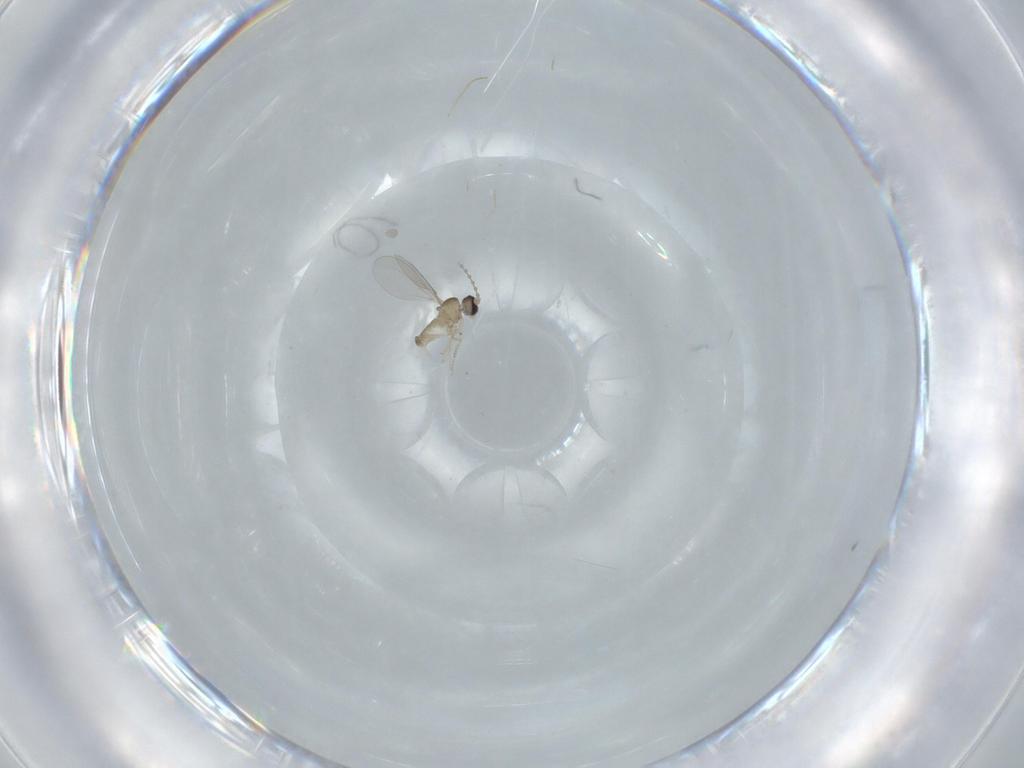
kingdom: Animalia
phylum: Arthropoda
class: Insecta
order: Diptera
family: Cecidomyiidae
